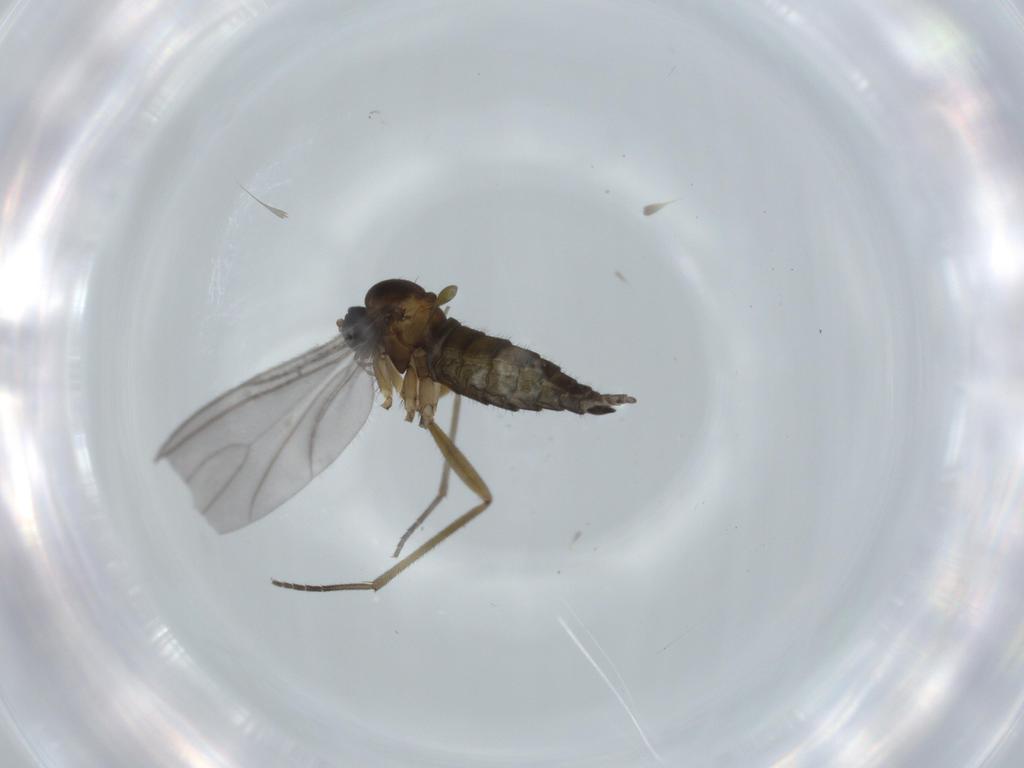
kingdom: Animalia
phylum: Arthropoda
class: Insecta
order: Diptera
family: Sciaridae
